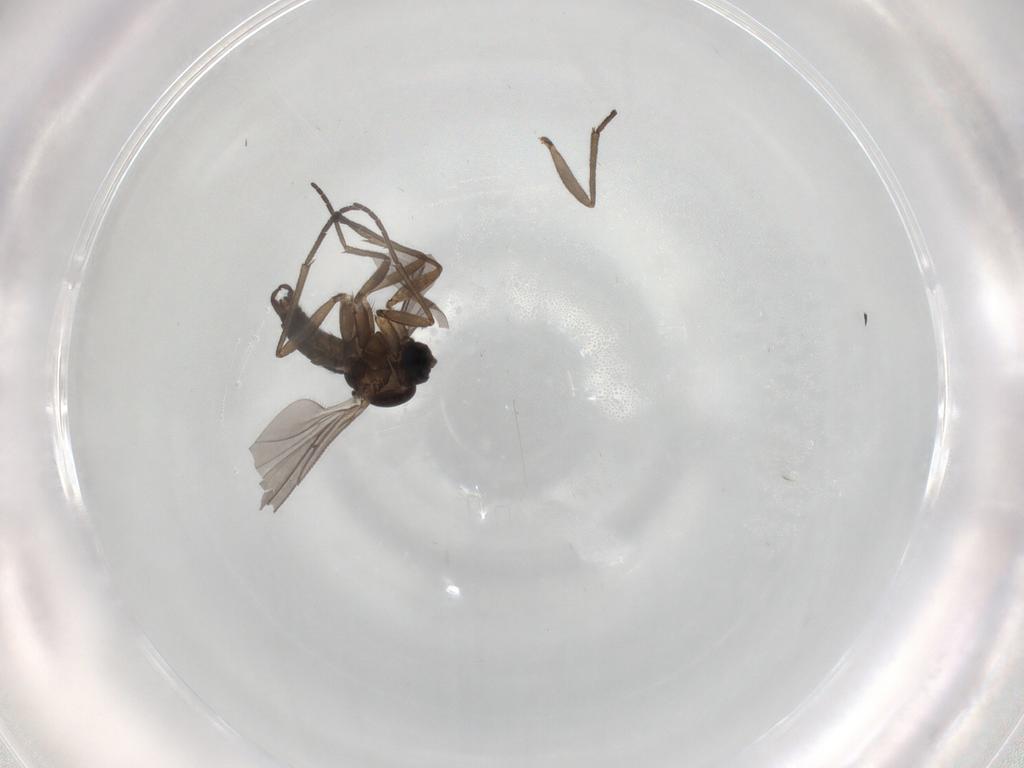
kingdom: Animalia
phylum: Arthropoda
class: Insecta
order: Diptera
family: Sciaridae
